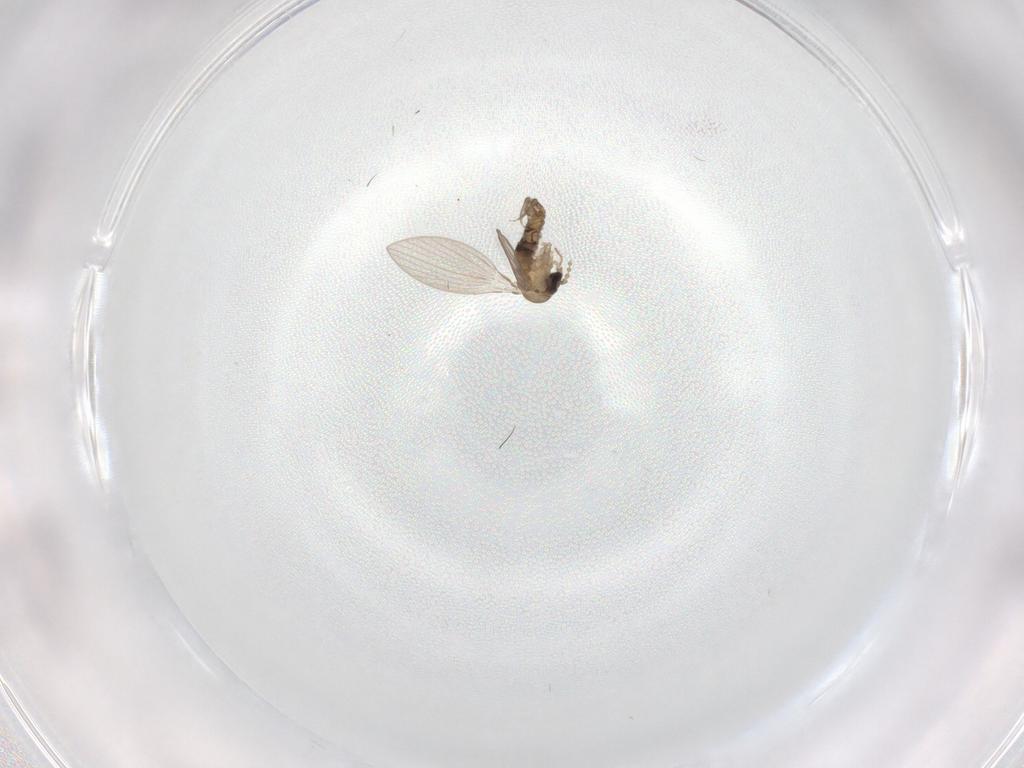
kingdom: Animalia
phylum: Arthropoda
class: Insecta
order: Diptera
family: Psychodidae
